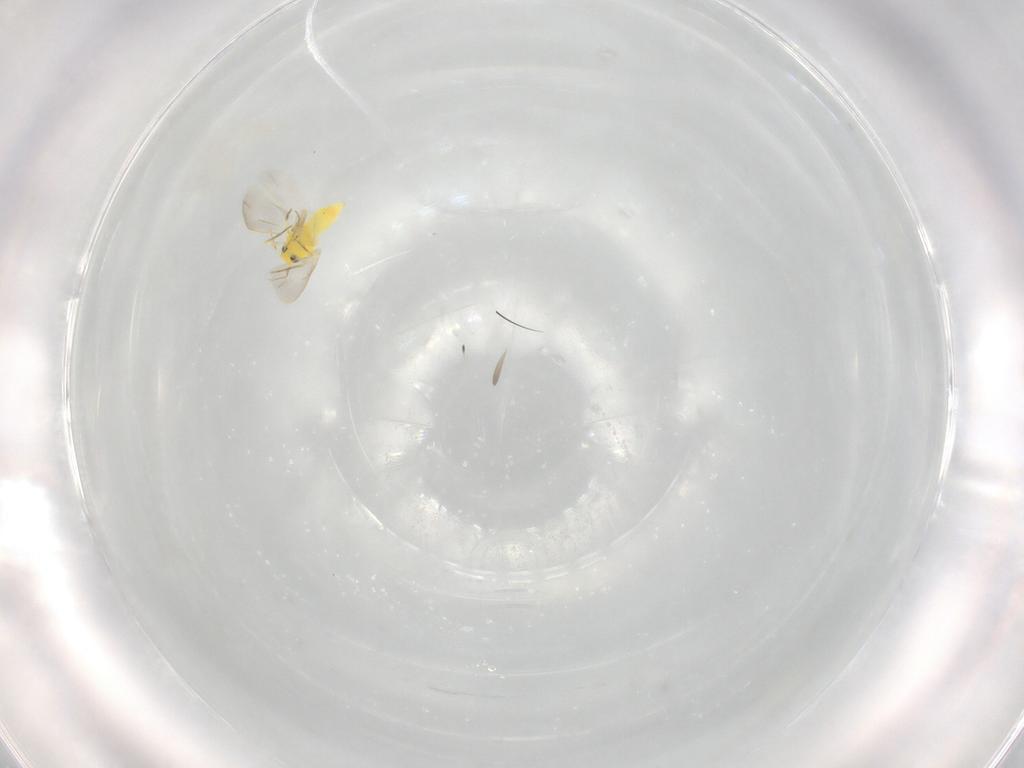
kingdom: Animalia
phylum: Arthropoda
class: Insecta
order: Hemiptera
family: Aleyrodidae
